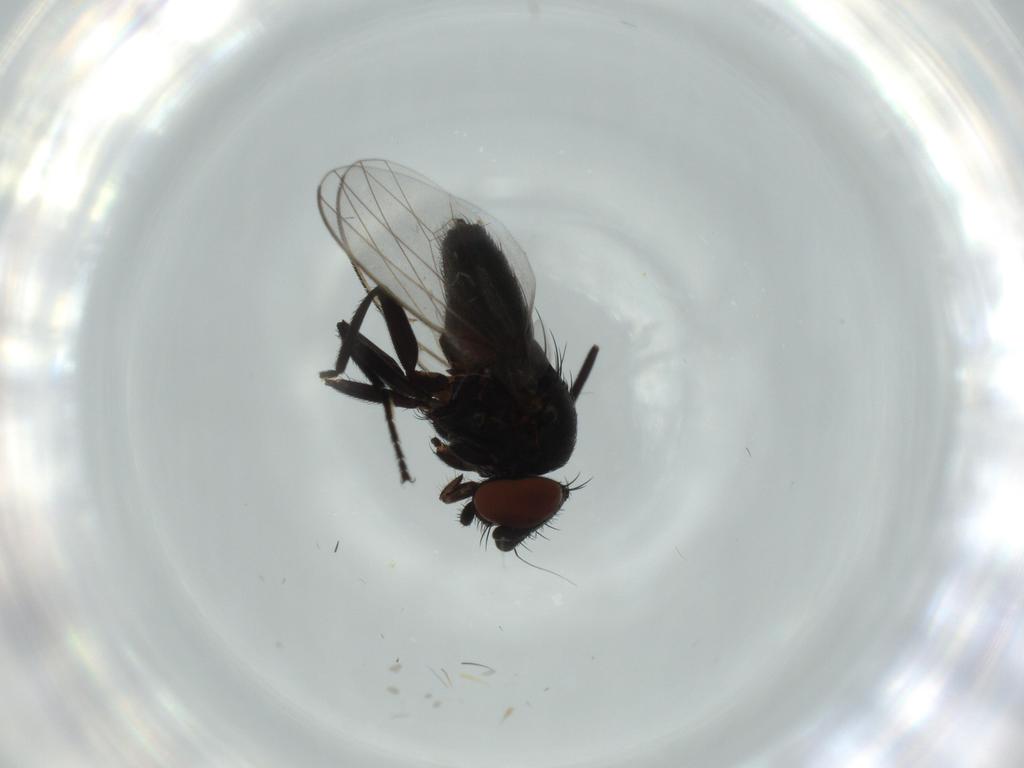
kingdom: Animalia
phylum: Arthropoda
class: Insecta
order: Diptera
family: Milichiidae
